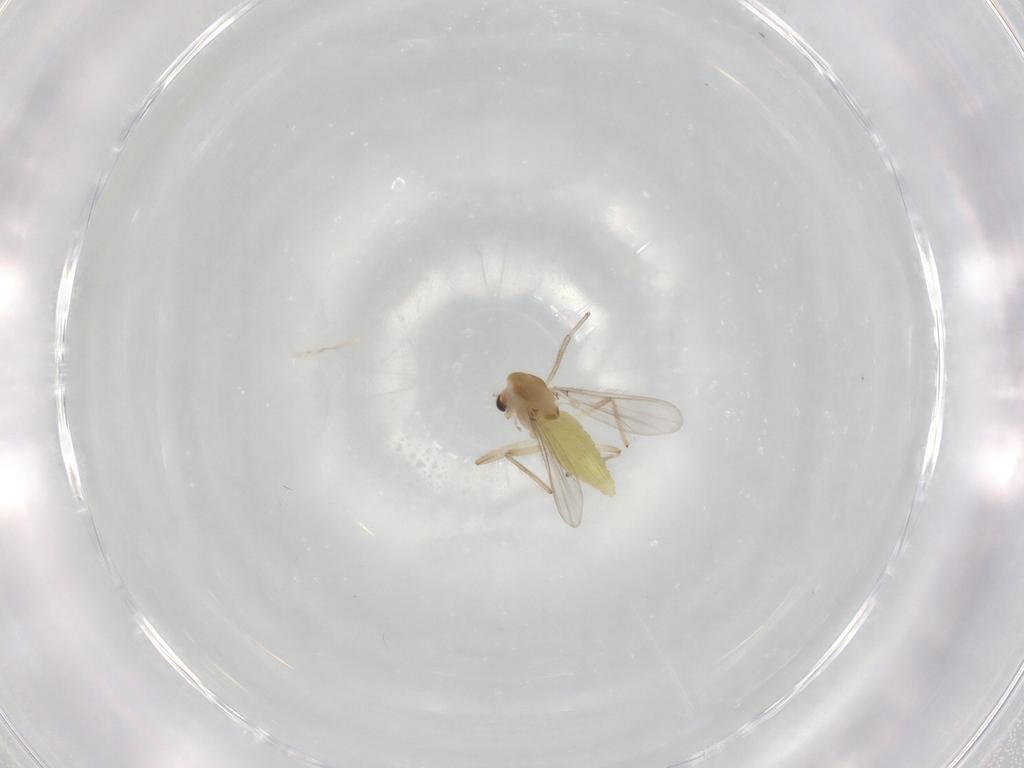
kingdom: Animalia
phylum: Arthropoda
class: Insecta
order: Diptera
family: Chironomidae
